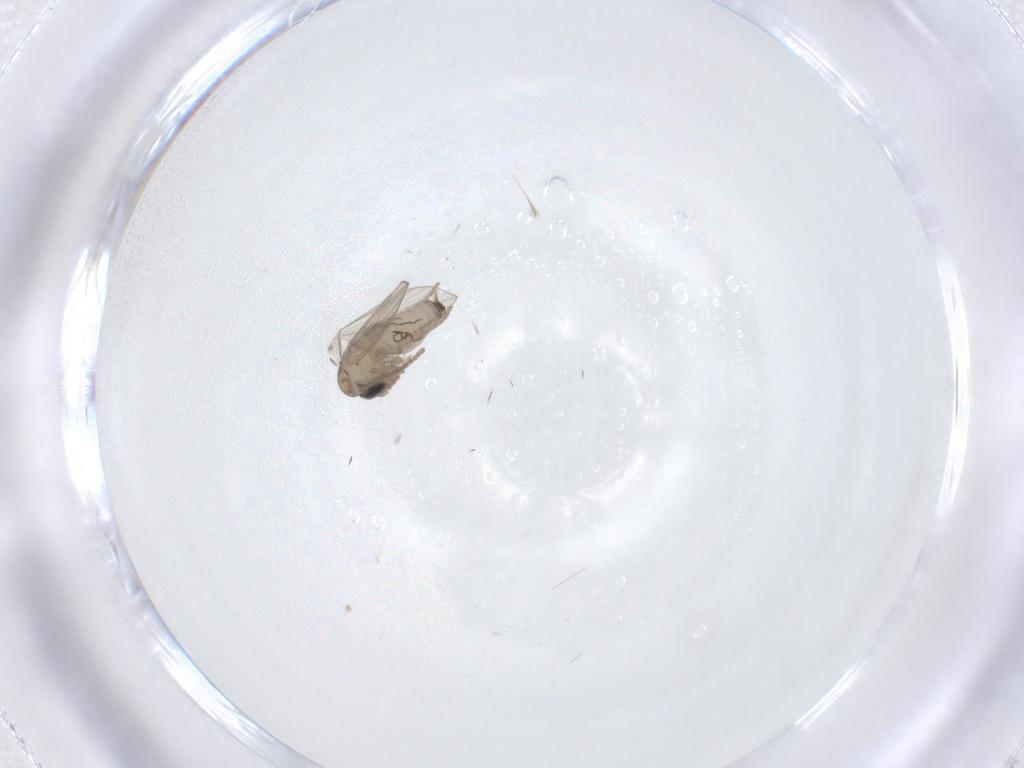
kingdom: Animalia
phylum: Arthropoda
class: Insecta
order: Diptera
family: Psychodidae
